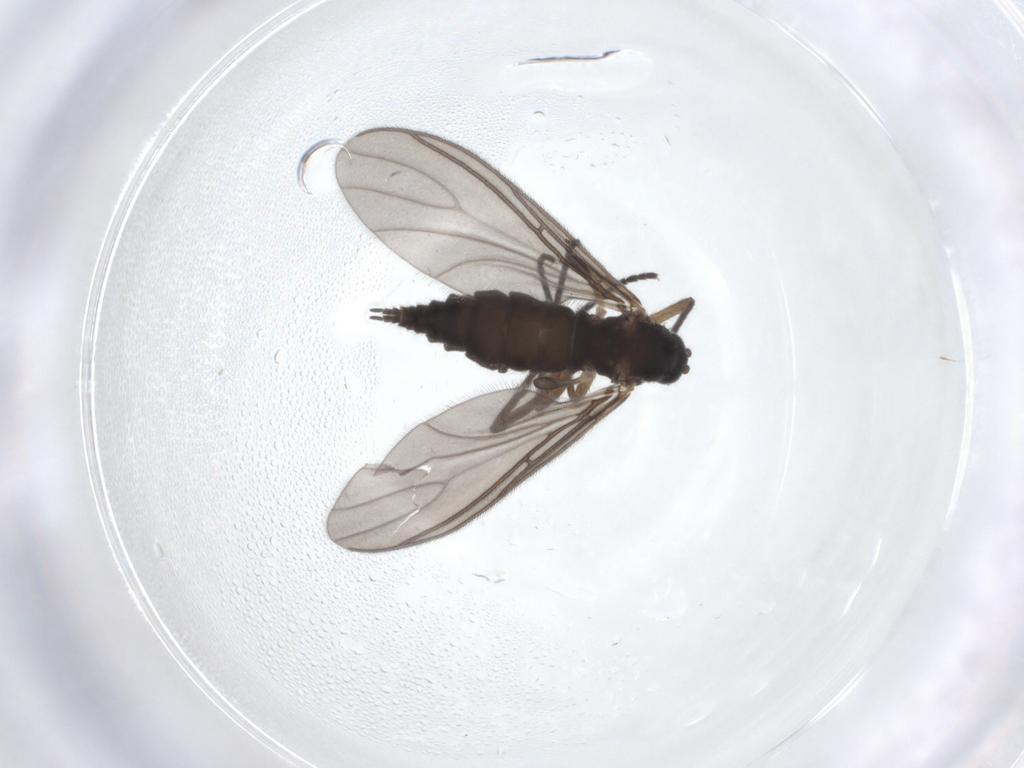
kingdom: Animalia
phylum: Arthropoda
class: Insecta
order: Diptera
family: Sciaridae
